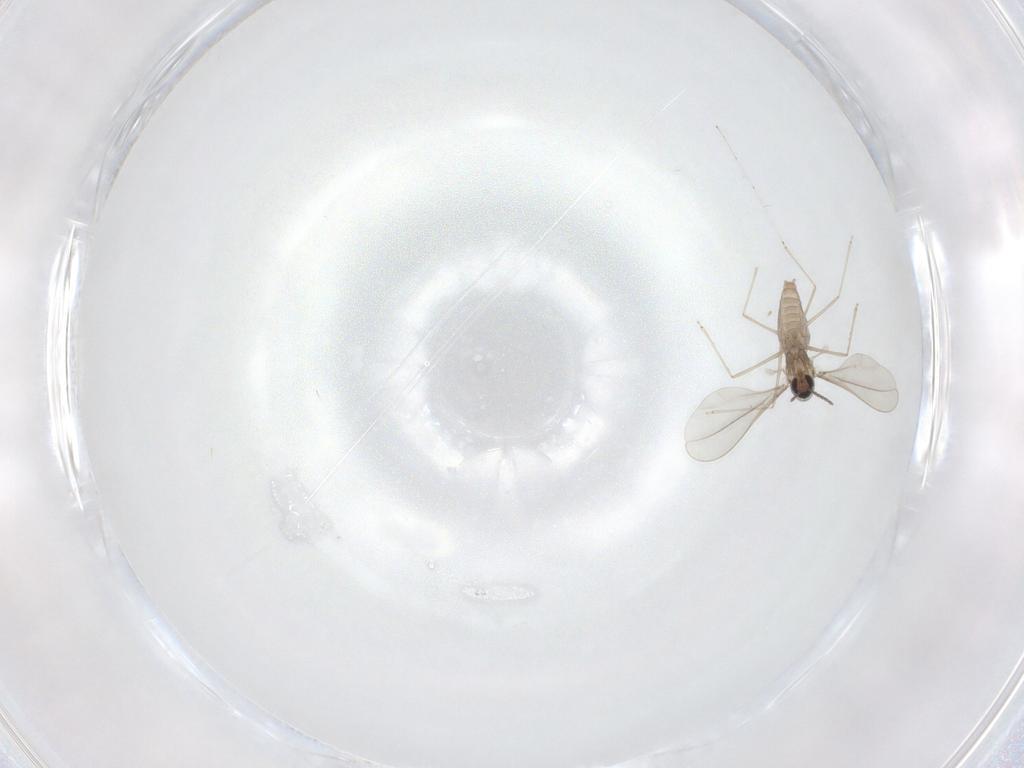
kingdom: Animalia
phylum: Arthropoda
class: Insecta
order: Diptera
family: Cecidomyiidae
